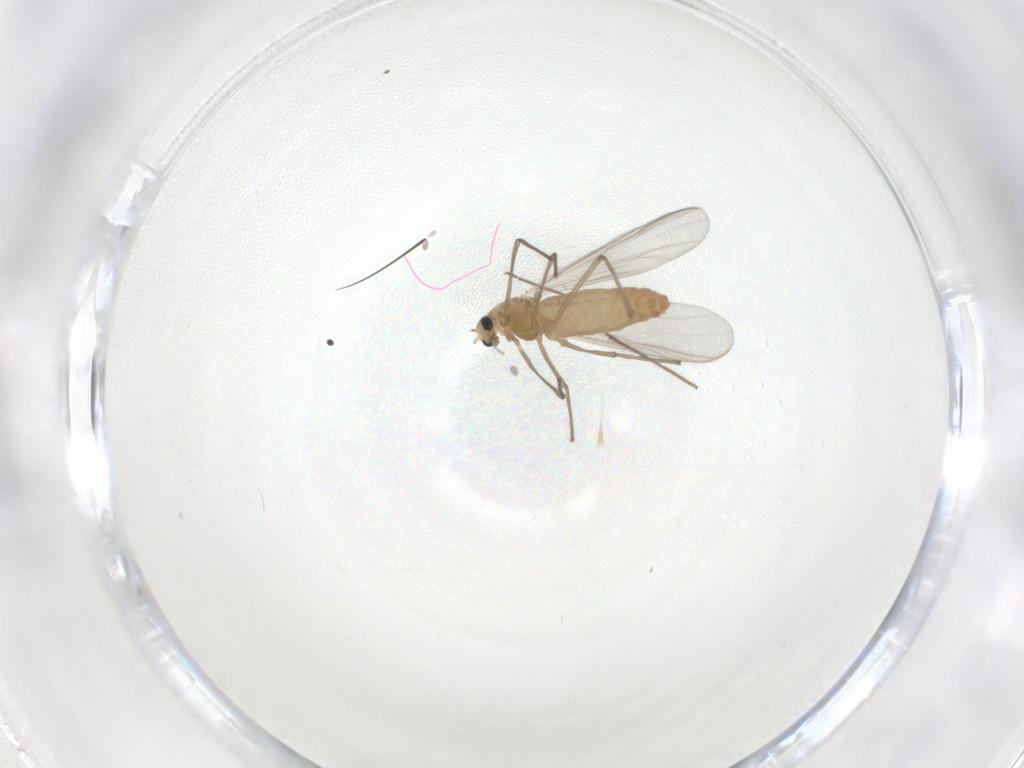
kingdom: Animalia
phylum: Arthropoda
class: Insecta
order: Diptera
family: Chironomidae
